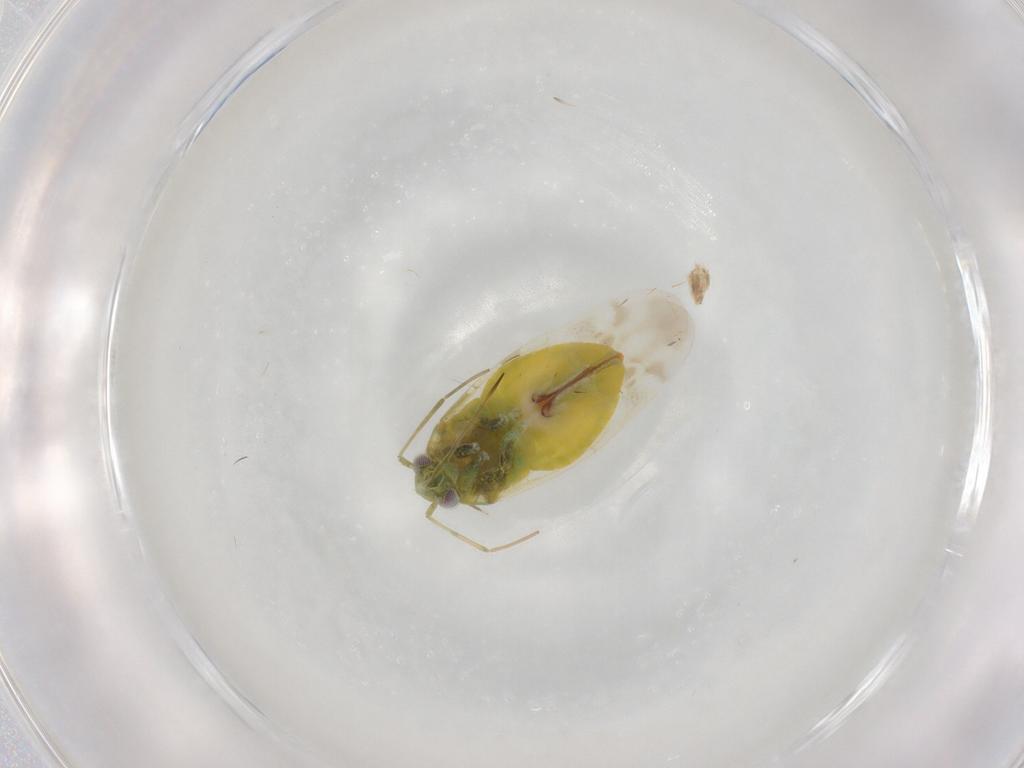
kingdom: Animalia
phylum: Arthropoda
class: Insecta
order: Hemiptera
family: Miridae
